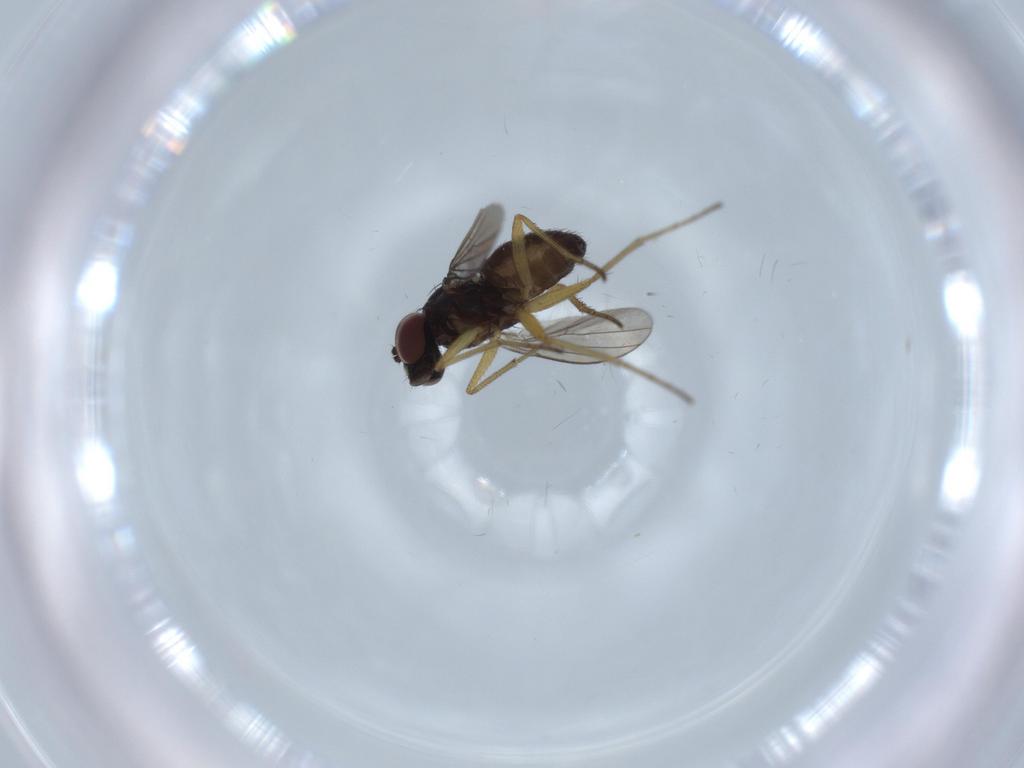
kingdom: Animalia
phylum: Arthropoda
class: Insecta
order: Diptera
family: Dolichopodidae
